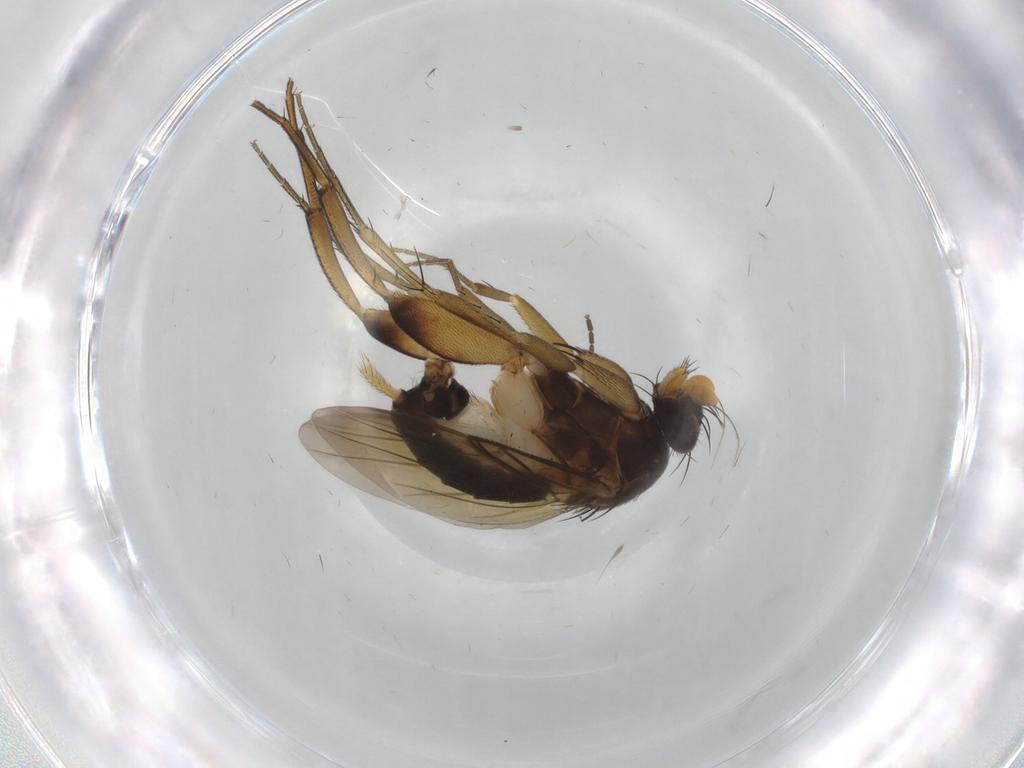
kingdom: Animalia
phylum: Arthropoda
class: Insecta
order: Diptera
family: Phoridae
